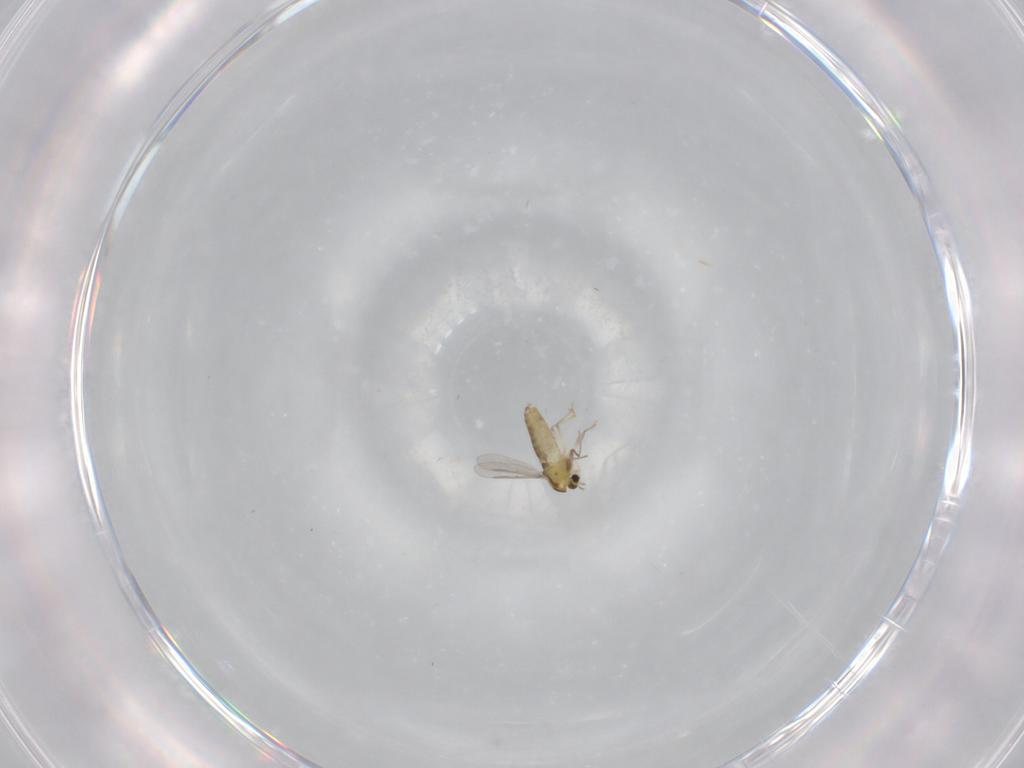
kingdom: Animalia
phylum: Arthropoda
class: Insecta
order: Diptera
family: Chironomidae
